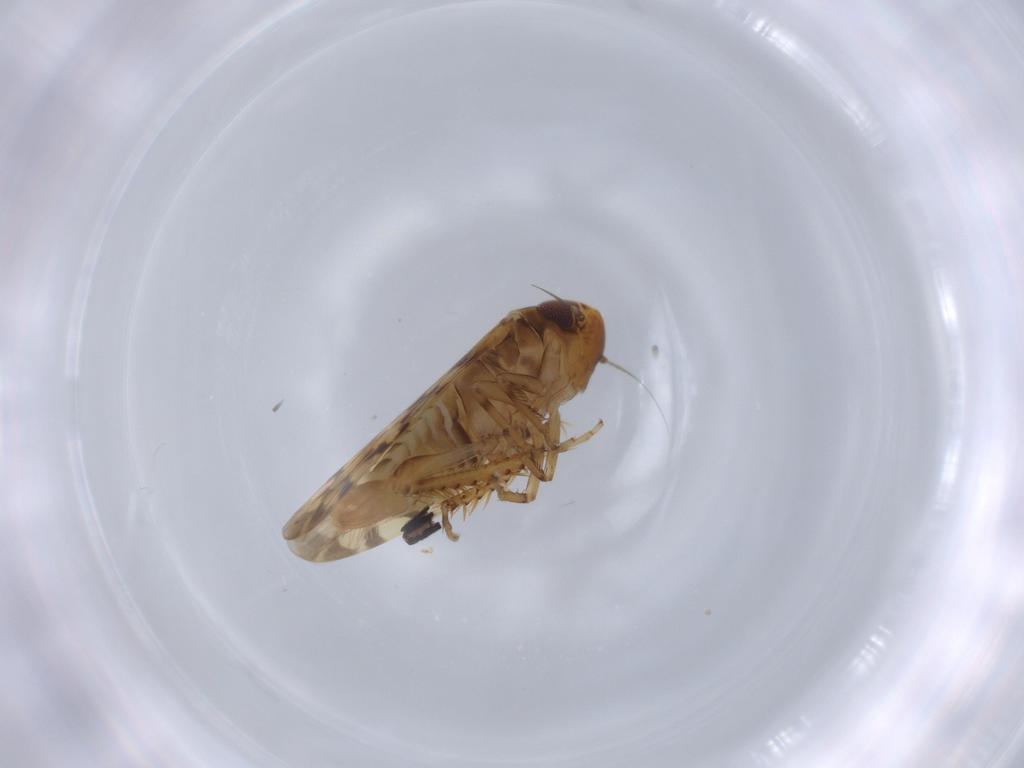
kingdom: Animalia
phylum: Arthropoda
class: Insecta
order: Hemiptera
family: Cicadellidae
